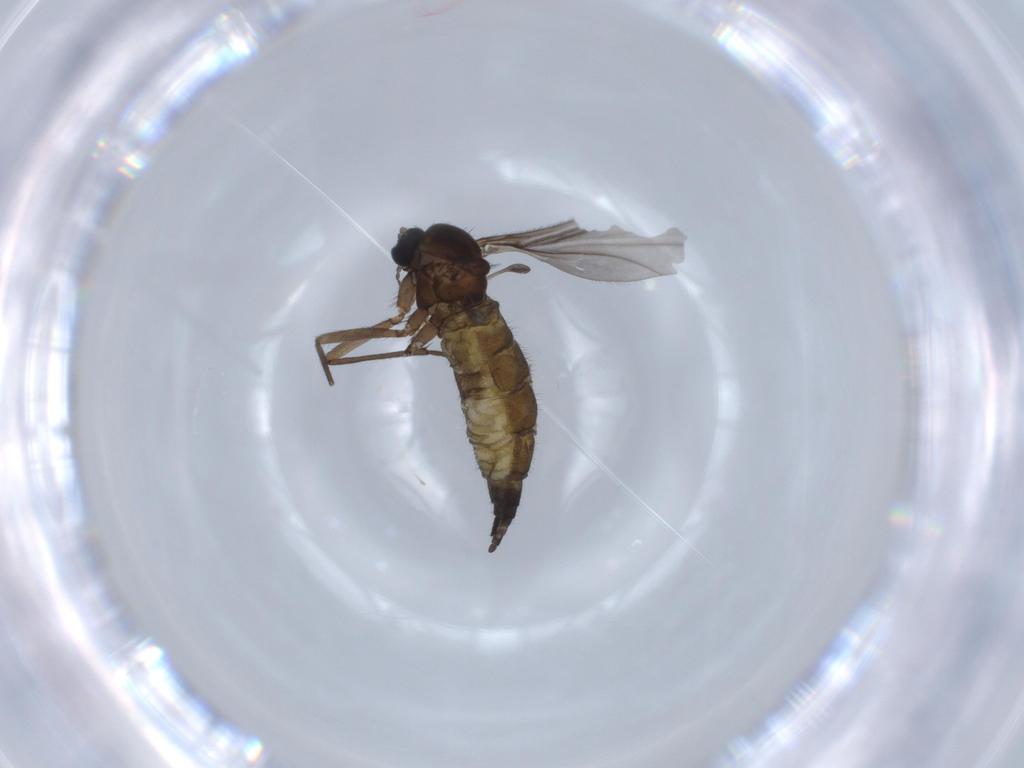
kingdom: Animalia
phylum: Arthropoda
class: Insecta
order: Diptera
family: Sciaridae
